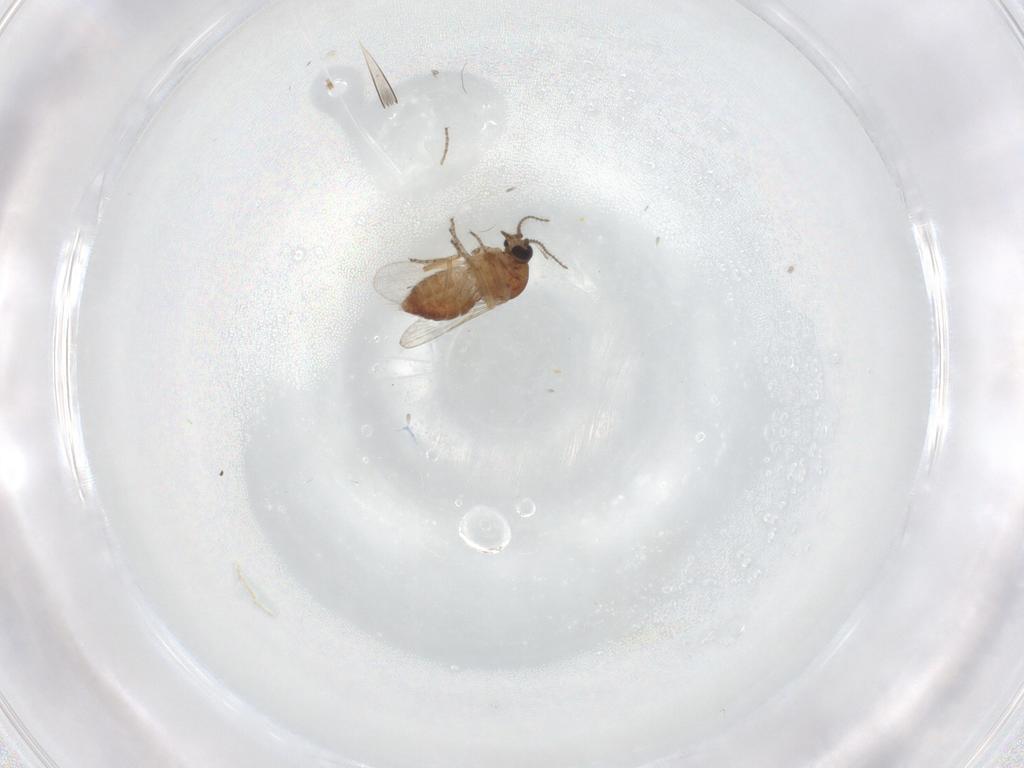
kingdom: Animalia
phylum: Arthropoda
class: Insecta
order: Diptera
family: Ceratopogonidae
